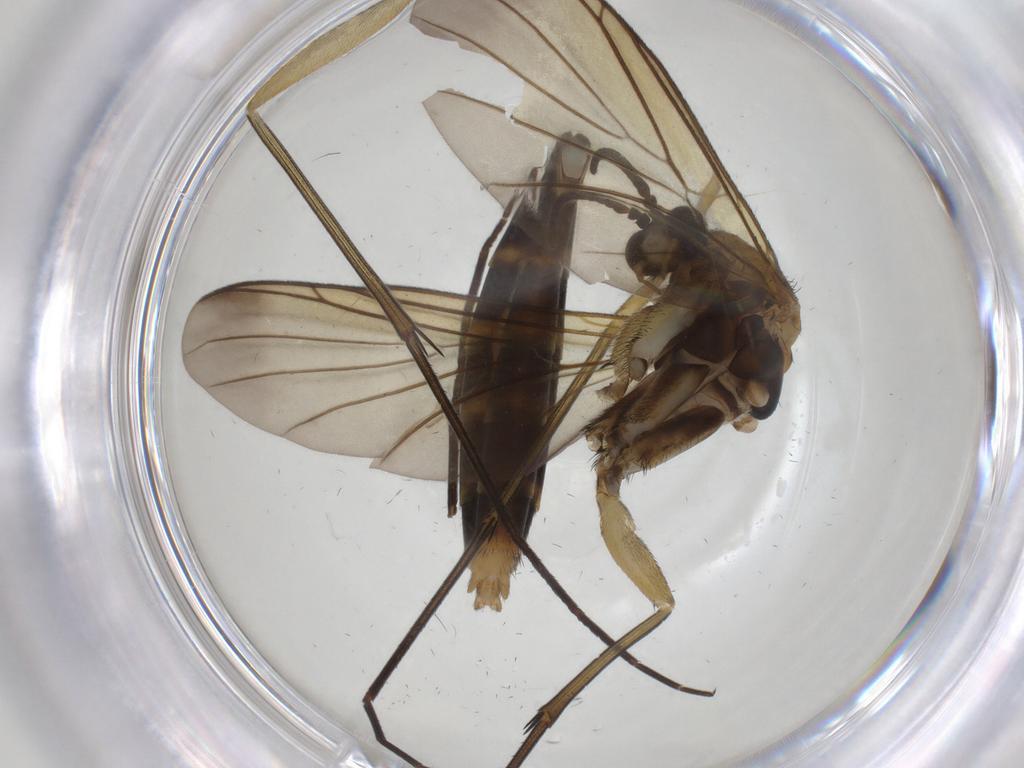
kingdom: Animalia
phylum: Arthropoda
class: Insecta
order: Diptera
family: Keroplatidae
